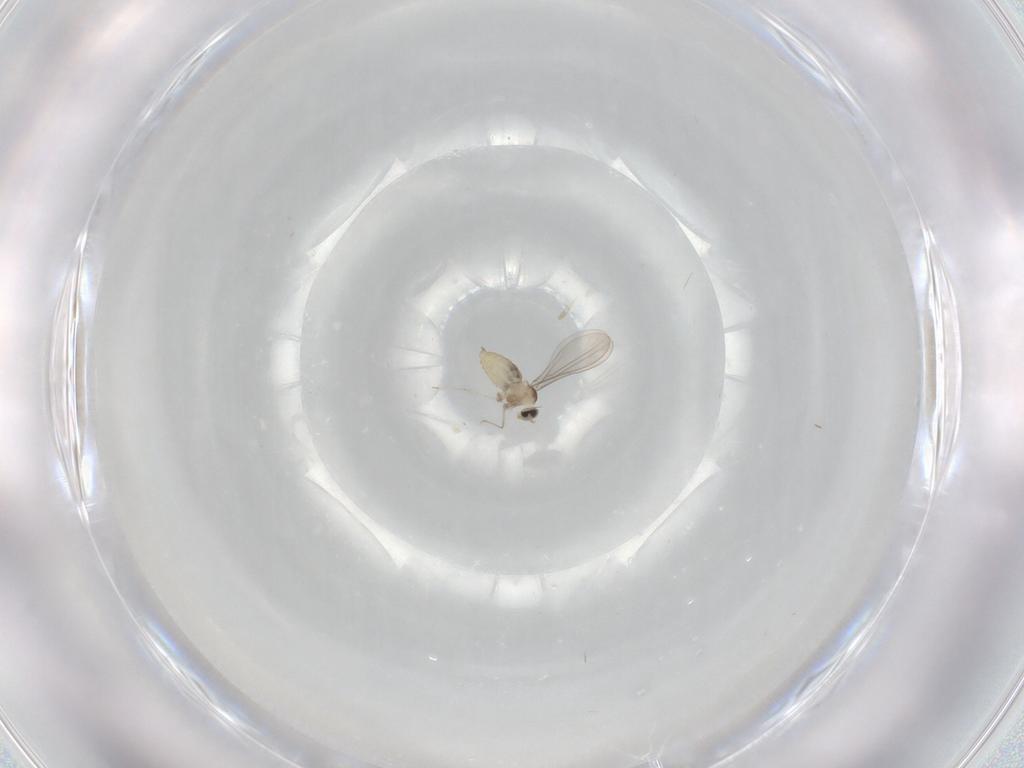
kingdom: Animalia
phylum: Arthropoda
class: Insecta
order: Diptera
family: Cecidomyiidae
